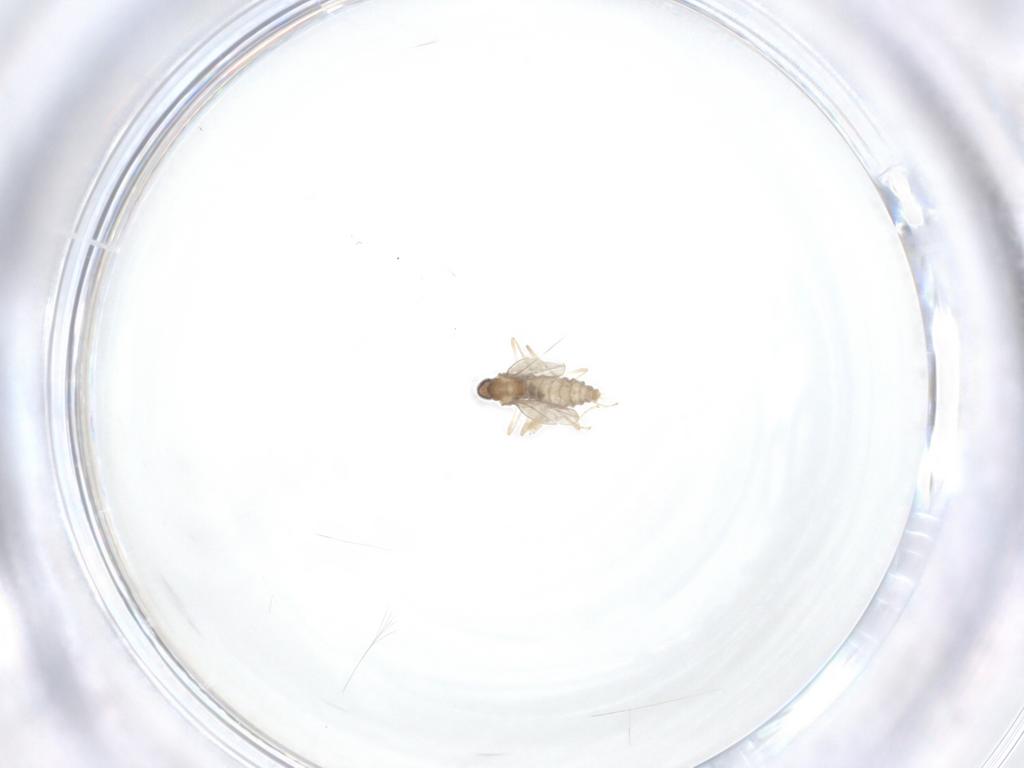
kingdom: Animalia
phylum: Arthropoda
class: Insecta
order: Diptera
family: Cecidomyiidae
